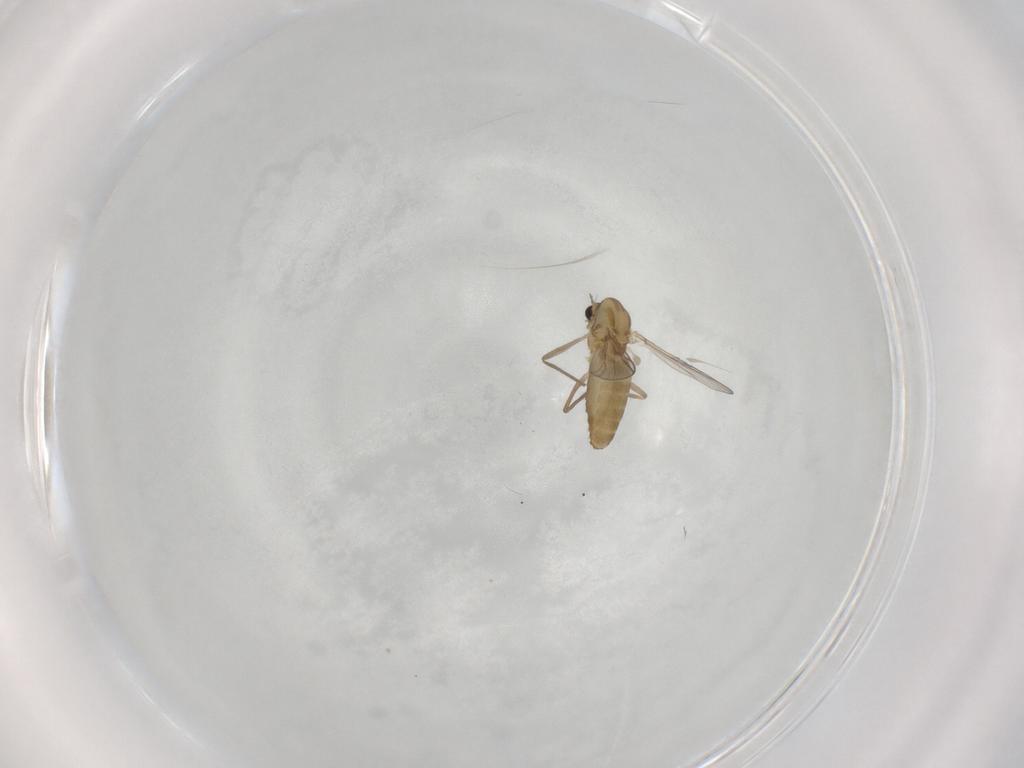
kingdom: Animalia
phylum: Arthropoda
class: Insecta
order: Diptera
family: Chironomidae
